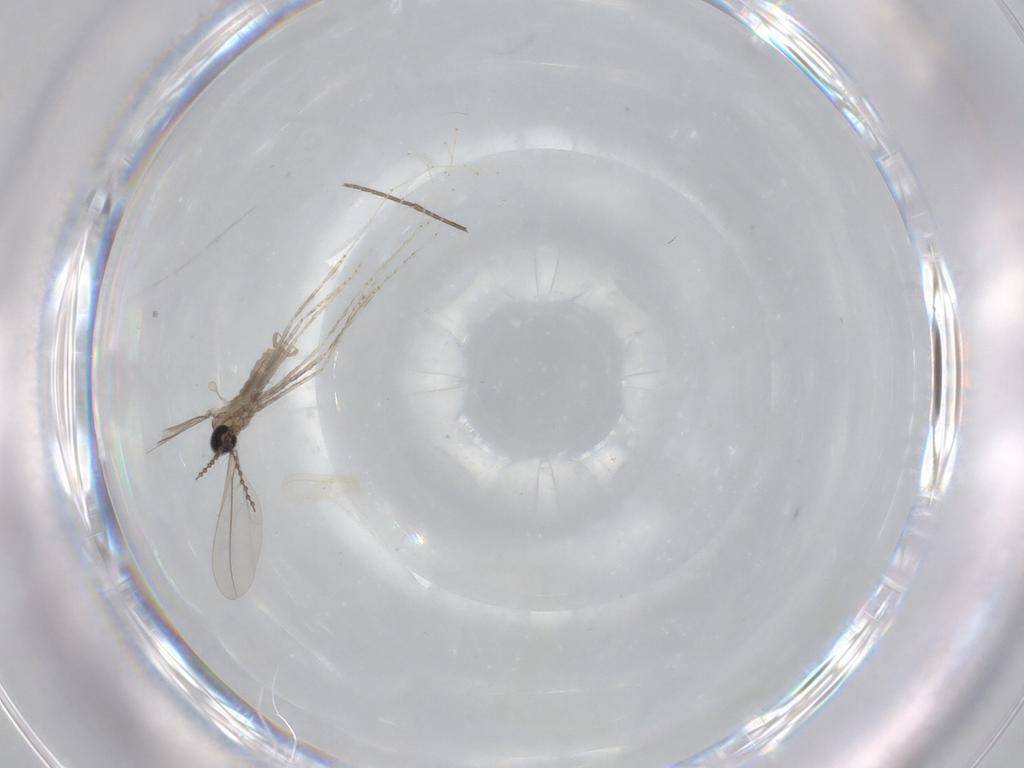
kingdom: Animalia
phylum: Arthropoda
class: Insecta
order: Diptera
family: Sciaridae
